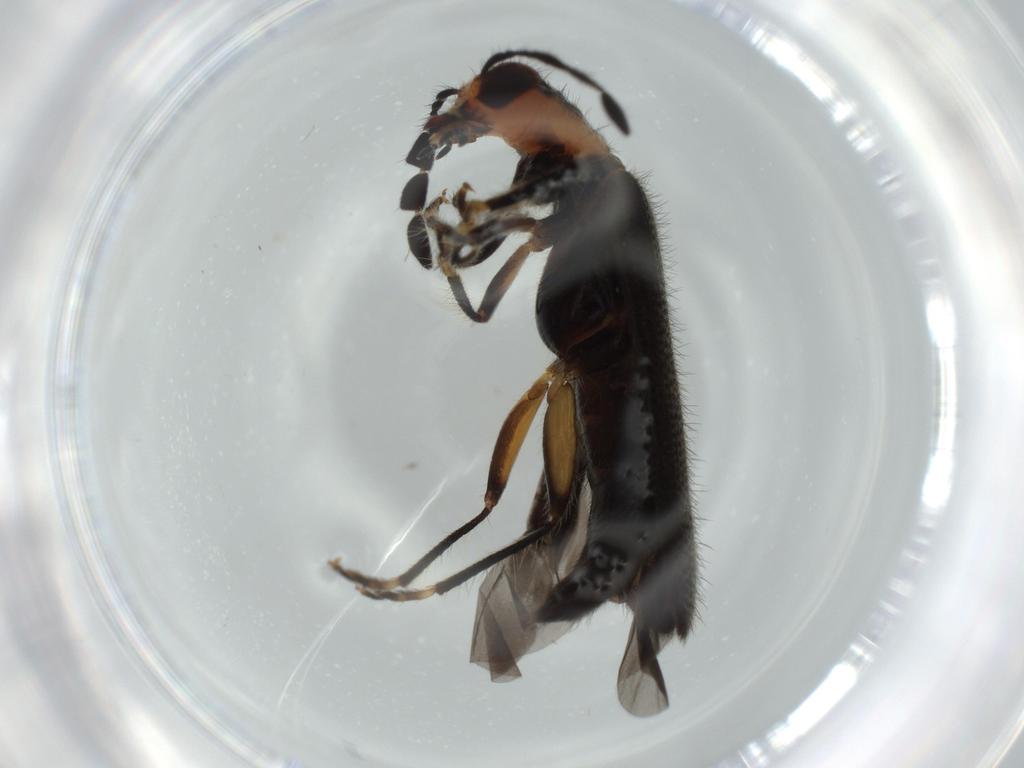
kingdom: Animalia
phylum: Arthropoda
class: Insecta
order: Coleoptera
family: Cleridae
